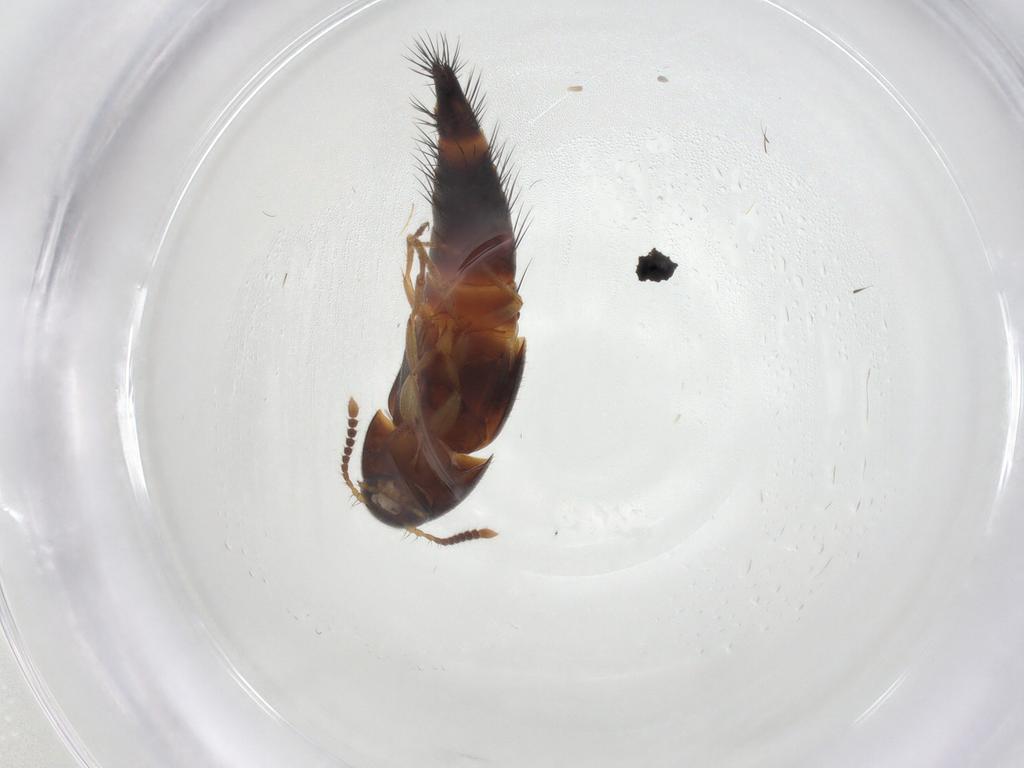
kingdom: Animalia
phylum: Arthropoda
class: Insecta
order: Coleoptera
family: Staphylinidae
